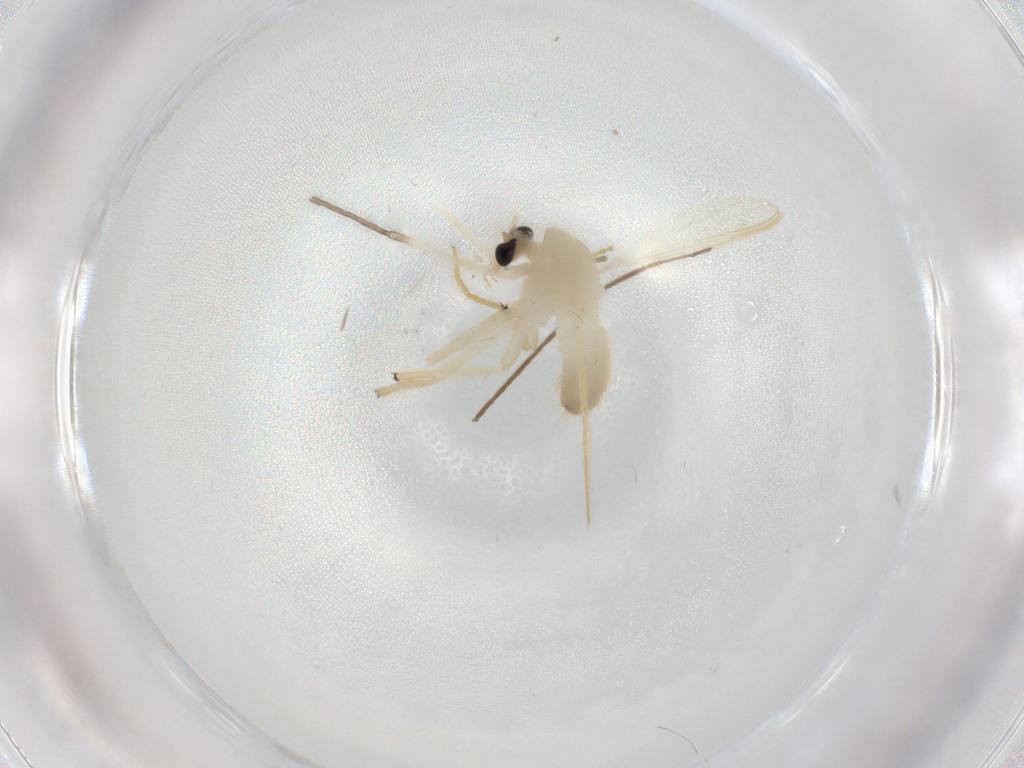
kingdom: Animalia
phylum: Arthropoda
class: Insecta
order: Diptera
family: Chironomidae
